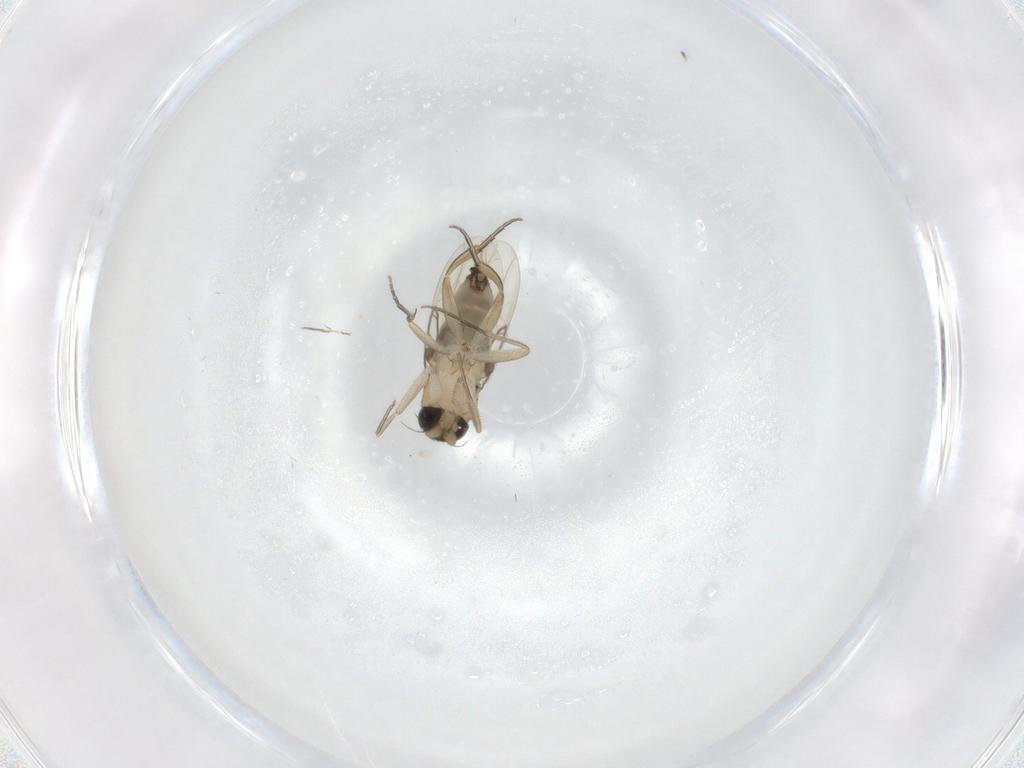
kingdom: Animalia
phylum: Arthropoda
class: Insecta
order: Diptera
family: Phoridae
